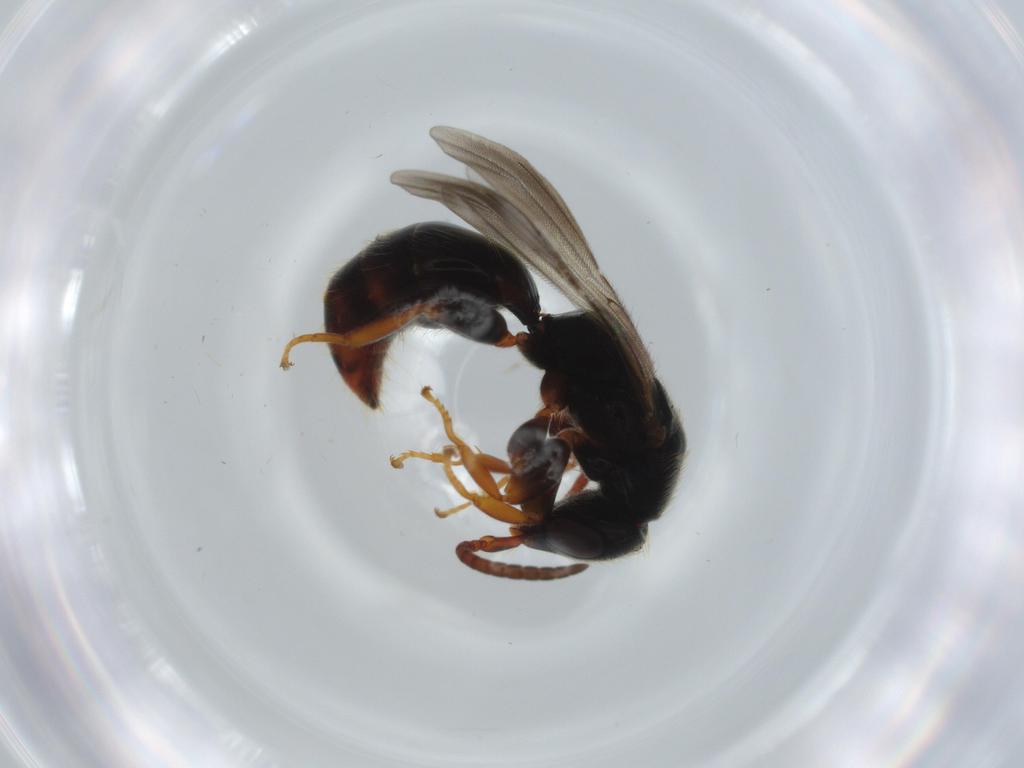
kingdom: Animalia
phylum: Arthropoda
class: Insecta
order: Hymenoptera
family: Bethylidae
